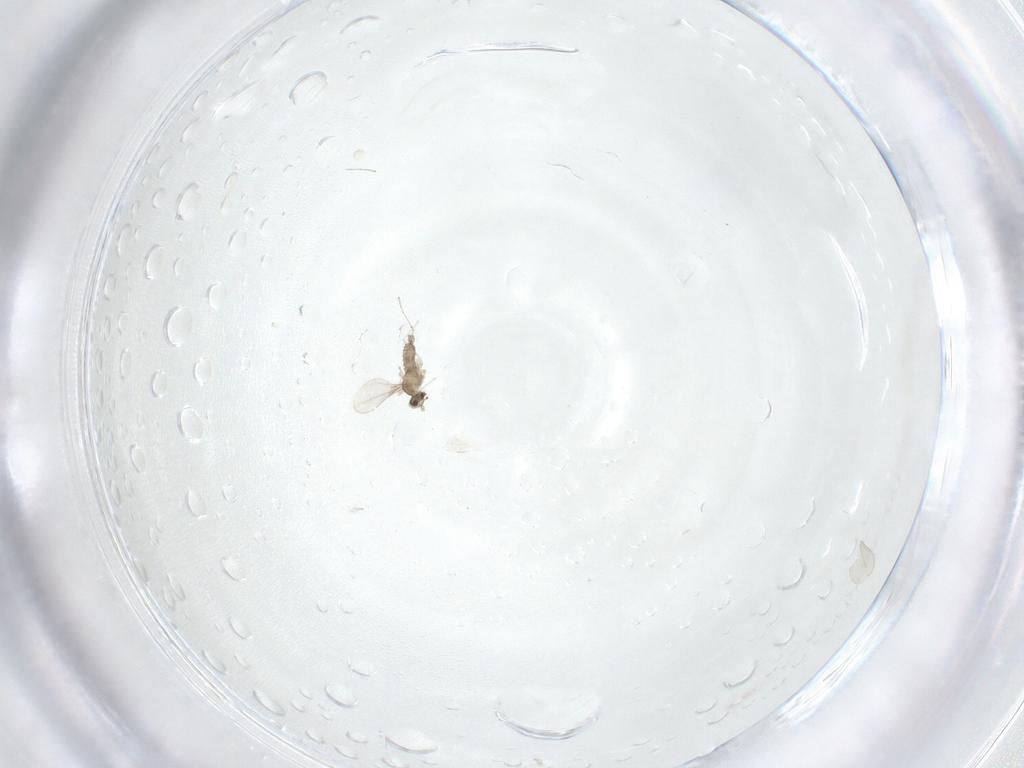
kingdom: Animalia
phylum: Arthropoda
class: Insecta
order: Diptera
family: Cecidomyiidae
